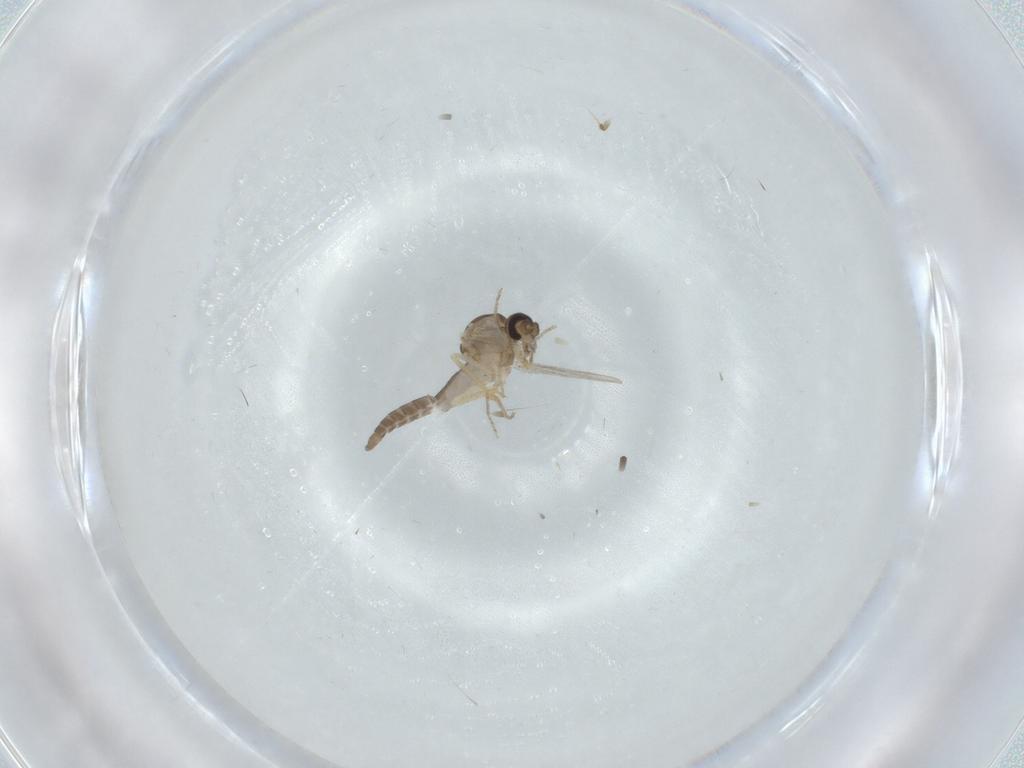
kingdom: Animalia
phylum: Arthropoda
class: Insecta
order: Diptera
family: Ceratopogonidae
